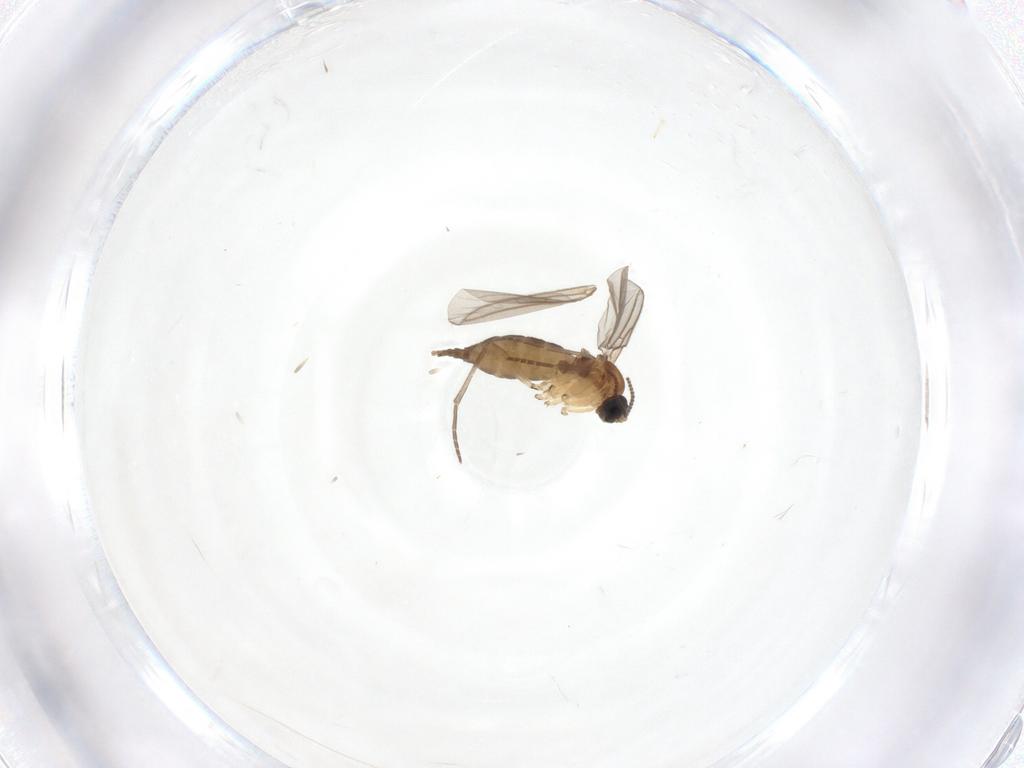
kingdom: Animalia
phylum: Arthropoda
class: Insecta
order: Diptera
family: Sciaridae
